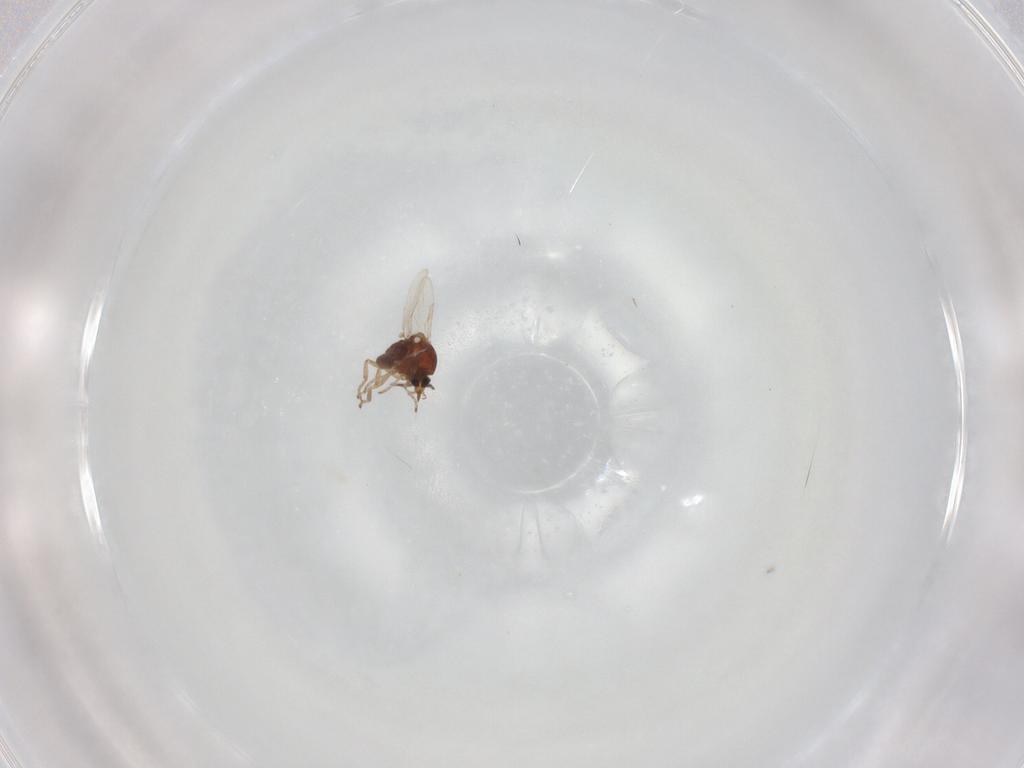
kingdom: Animalia
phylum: Arthropoda
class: Insecta
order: Diptera
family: Ceratopogonidae
